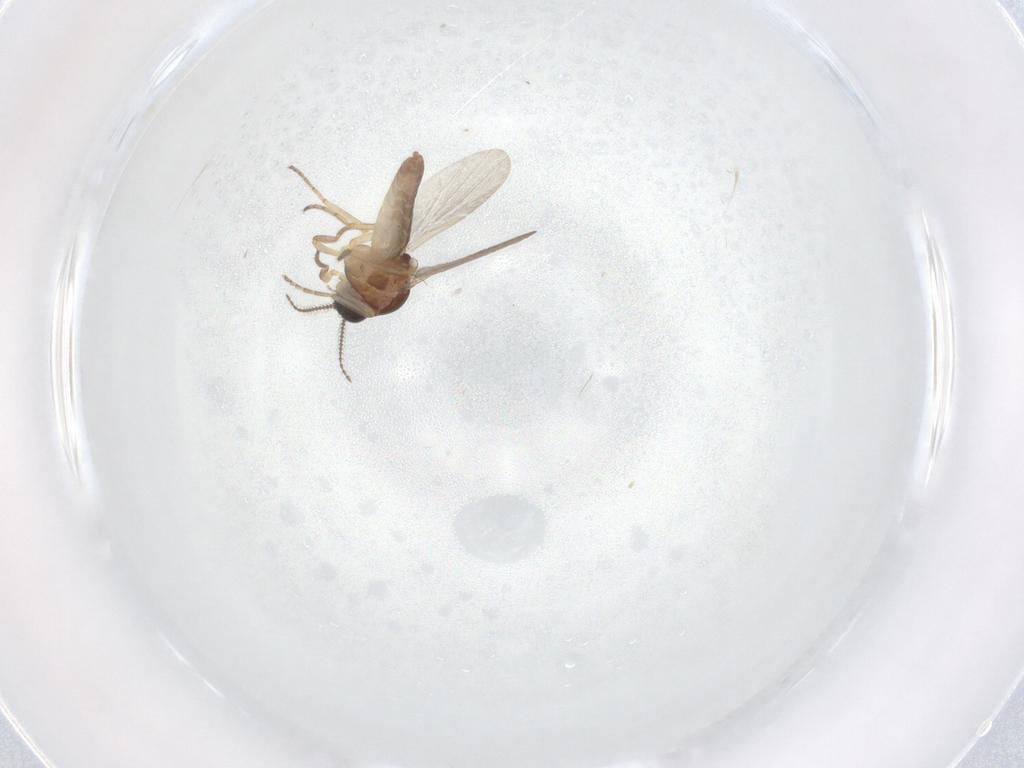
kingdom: Animalia
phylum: Arthropoda
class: Insecta
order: Diptera
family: Ceratopogonidae
